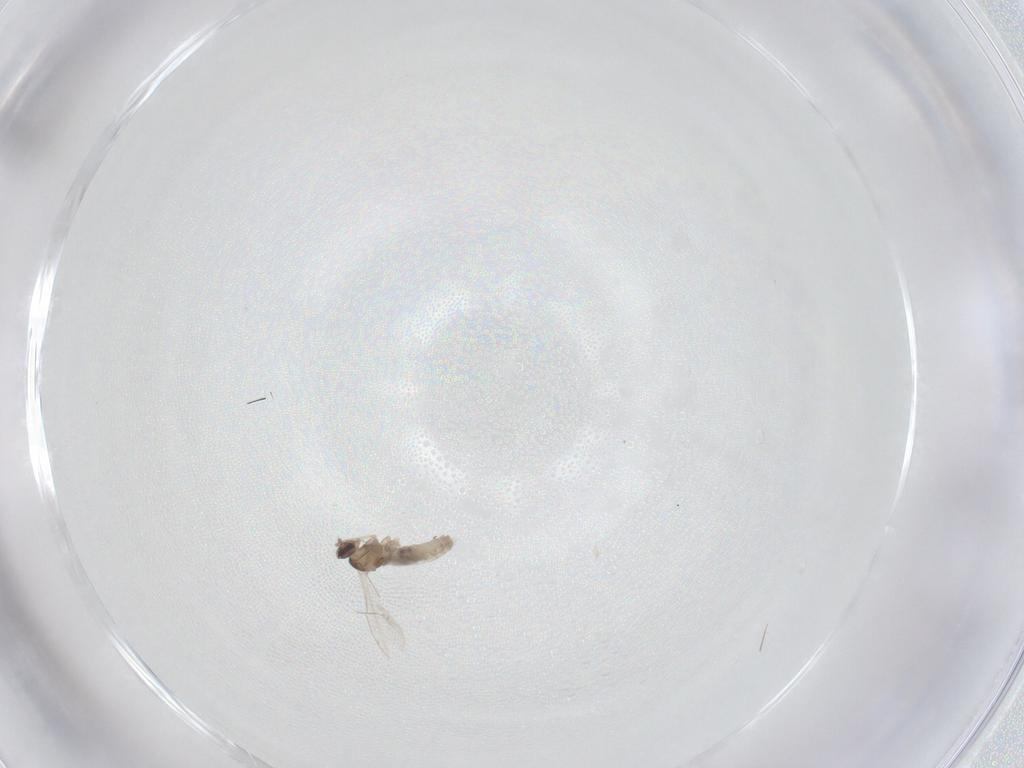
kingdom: Animalia
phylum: Arthropoda
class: Insecta
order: Diptera
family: Cecidomyiidae
